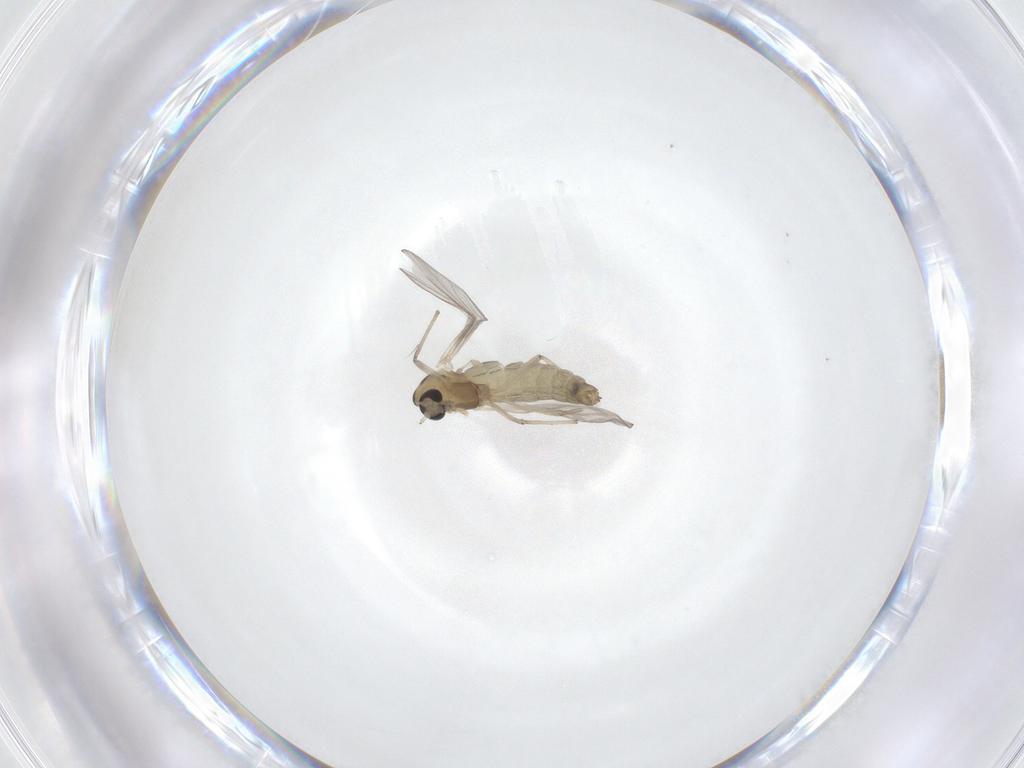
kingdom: Animalia
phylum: Arthropoda
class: Insecta
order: Diptera
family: Chironomidae
